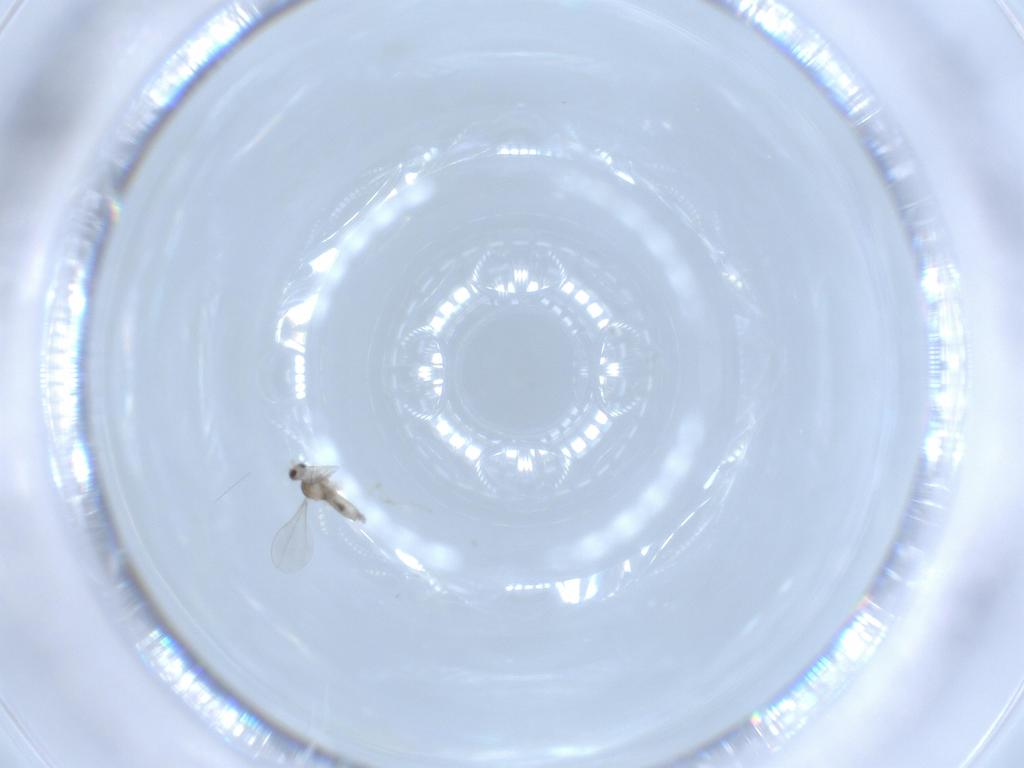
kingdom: Animalia
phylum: Arthropoda
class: Insecta
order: Diptera
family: Cecidomyiidae
